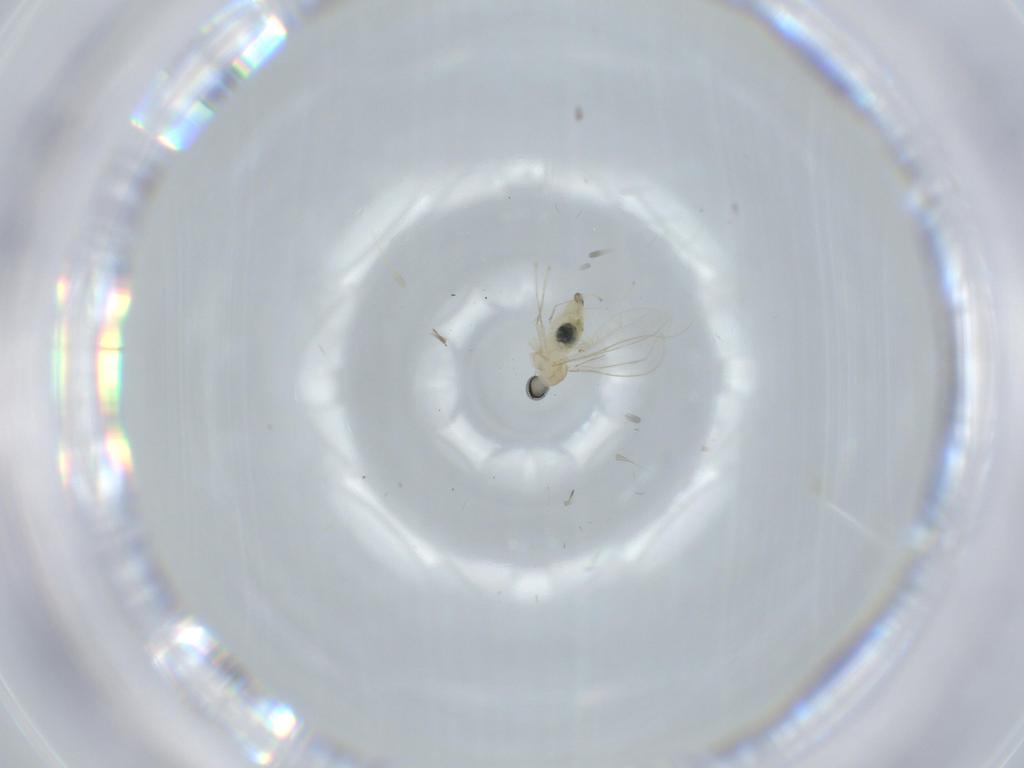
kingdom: Animalia
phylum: Arthropoda
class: Insecta
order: Diptera
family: Cecidomyiidae
